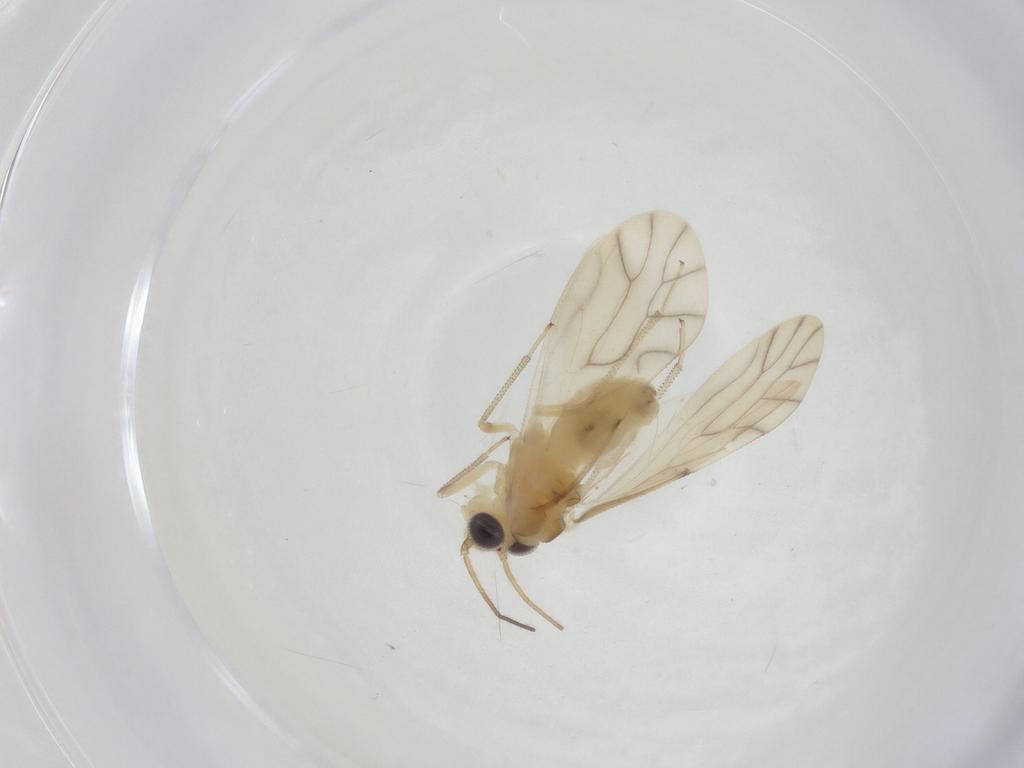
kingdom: Animalia
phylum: Arthropoda
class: Insecta
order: Psocodea
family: Caeciliusidae
